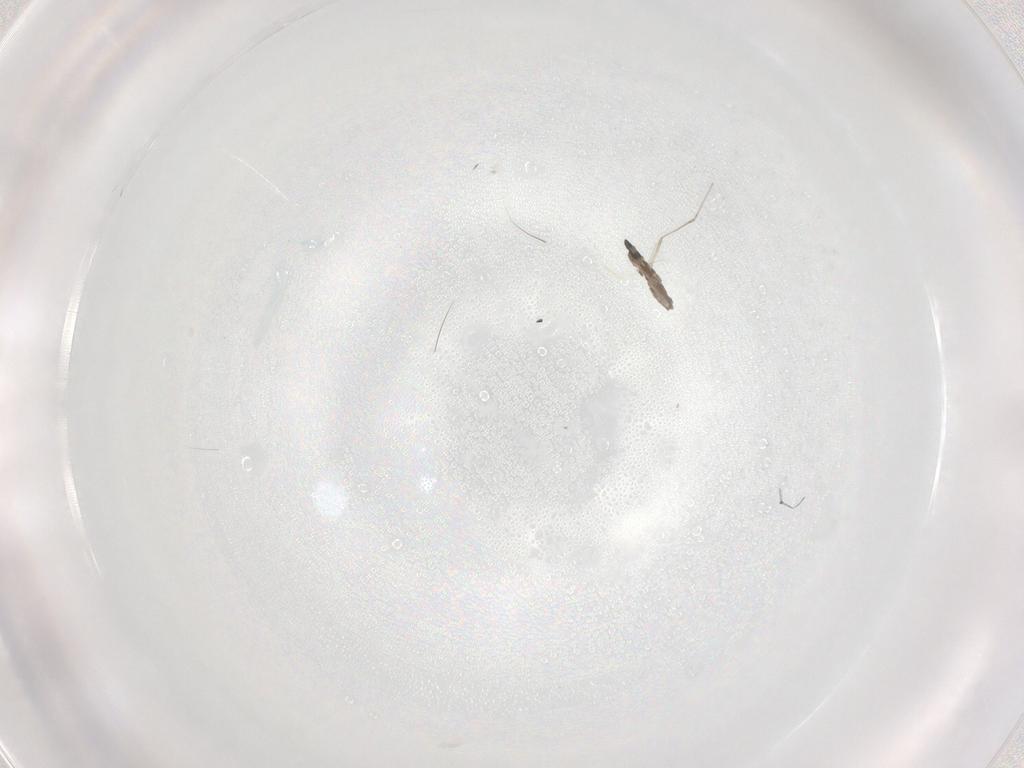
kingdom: Animalia
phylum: Arthropoda
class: Insecta
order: Diptera
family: Cecidomyiidae
